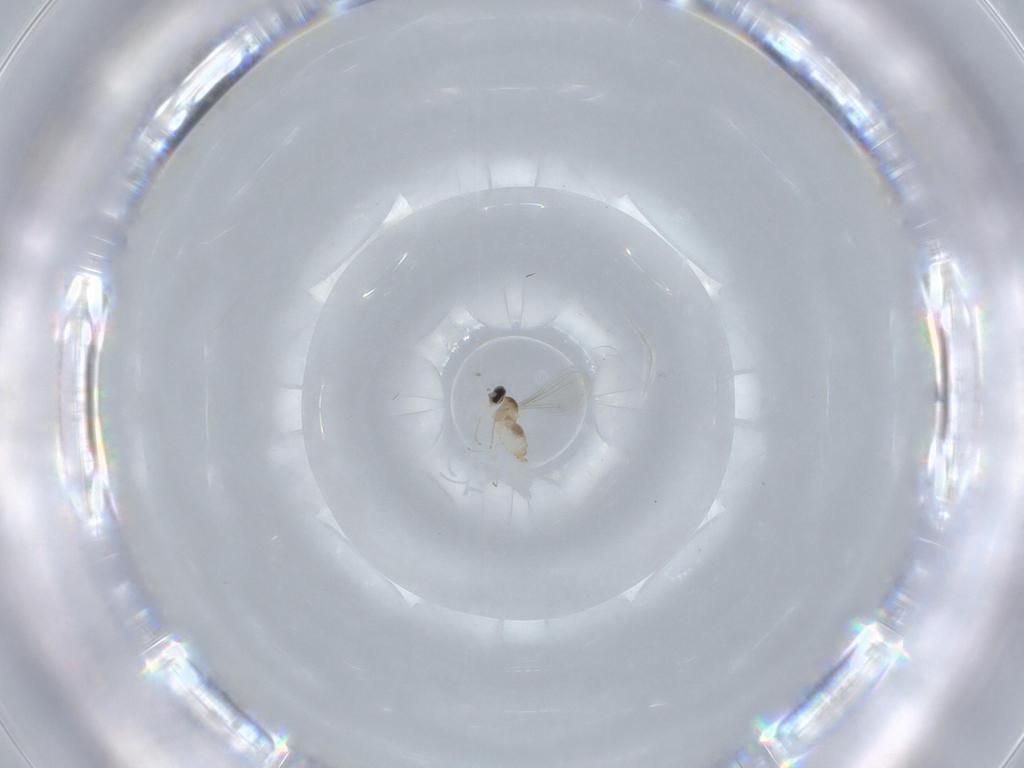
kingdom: Animalia
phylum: Arthropoda
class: Insecta
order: Diptera
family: Cecidomyiidae
